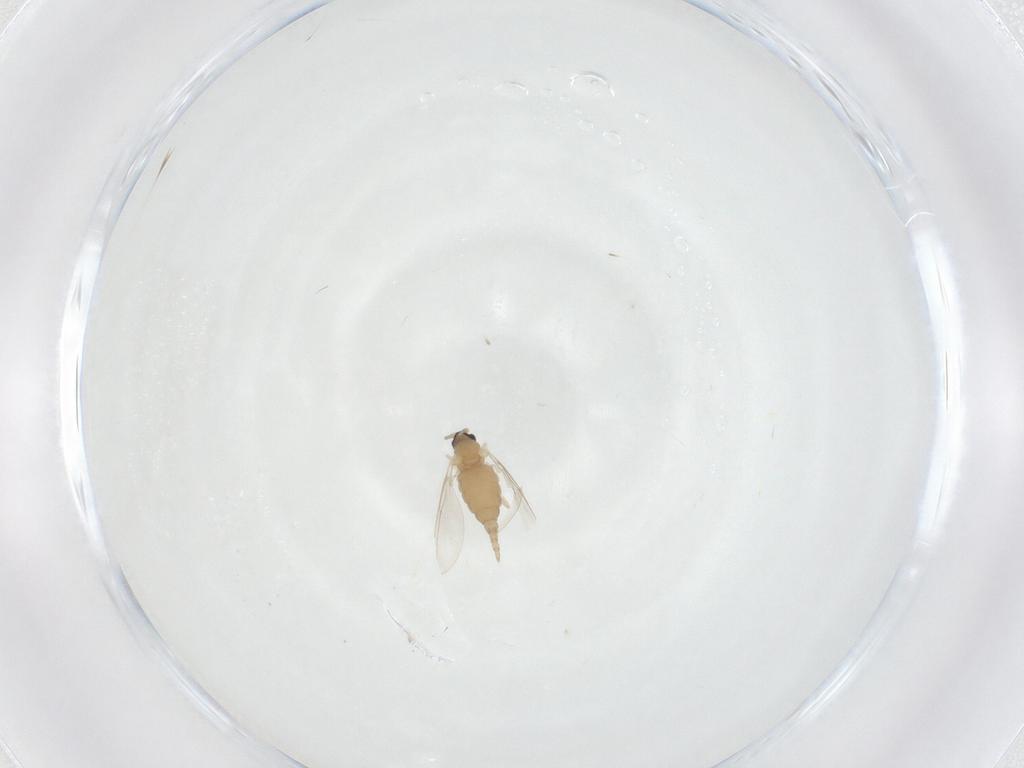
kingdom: Animalia
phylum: Arthropoda
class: Insecta
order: Diptera
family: Cecidomyiidae
